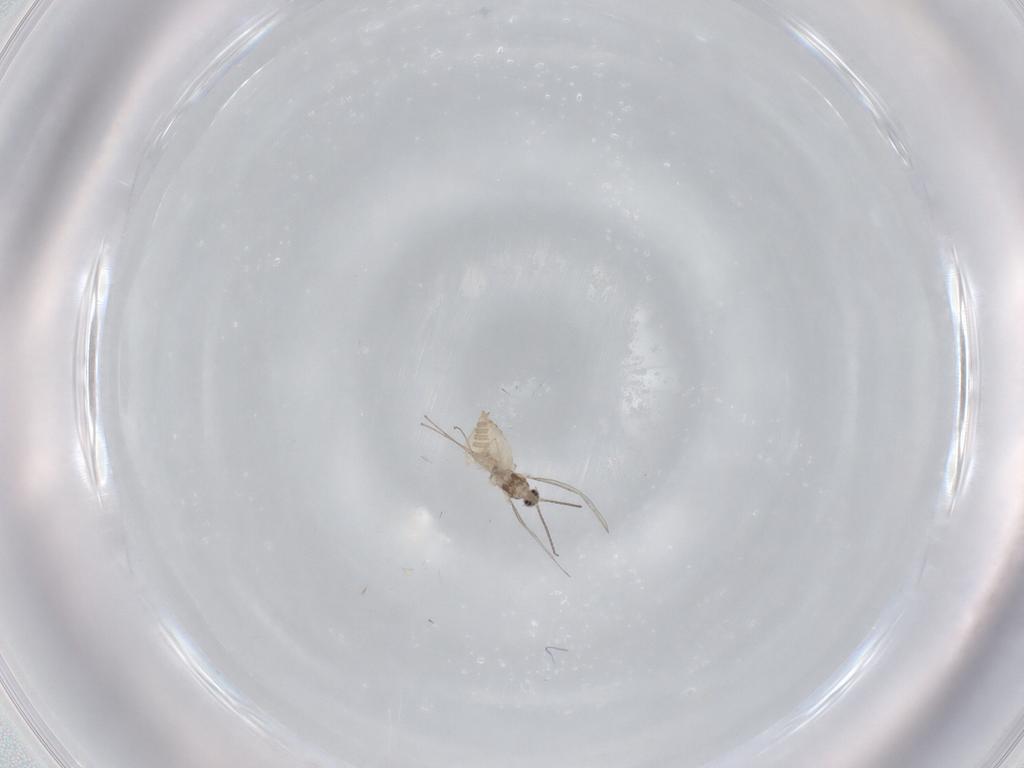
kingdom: Animalia
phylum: Arthropoda
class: Insecta
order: Diptera
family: Cecidomyiidae
